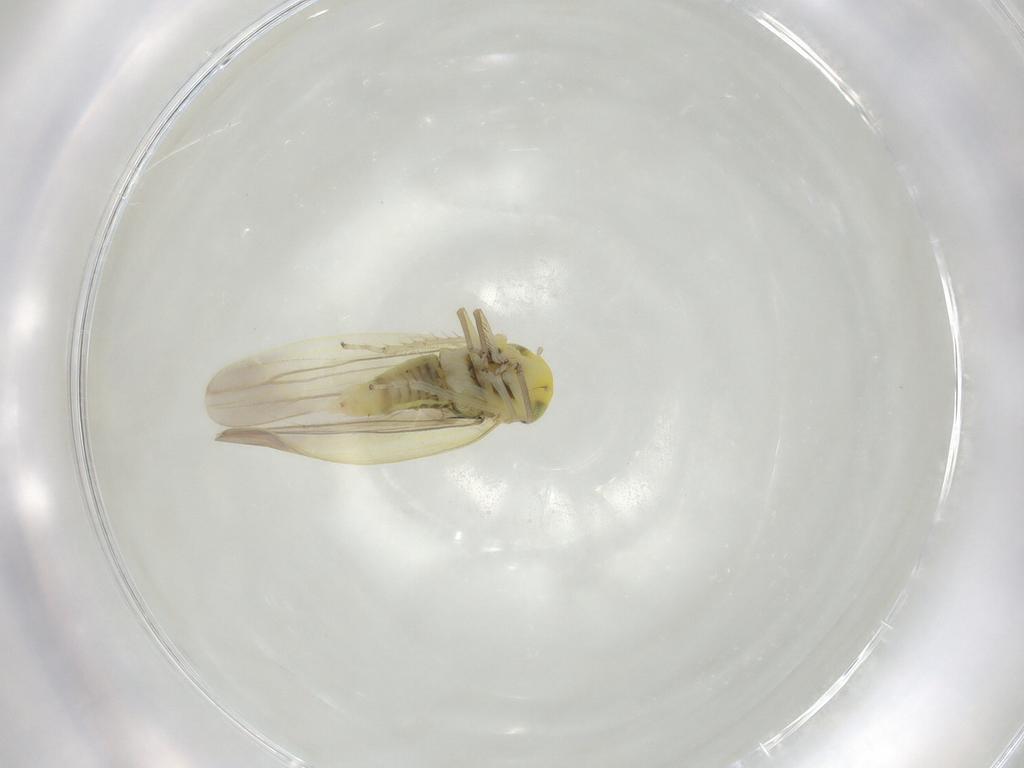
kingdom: Animalia
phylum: Arthropoda
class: Insecta
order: Hemiptera
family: Cicadellidae
